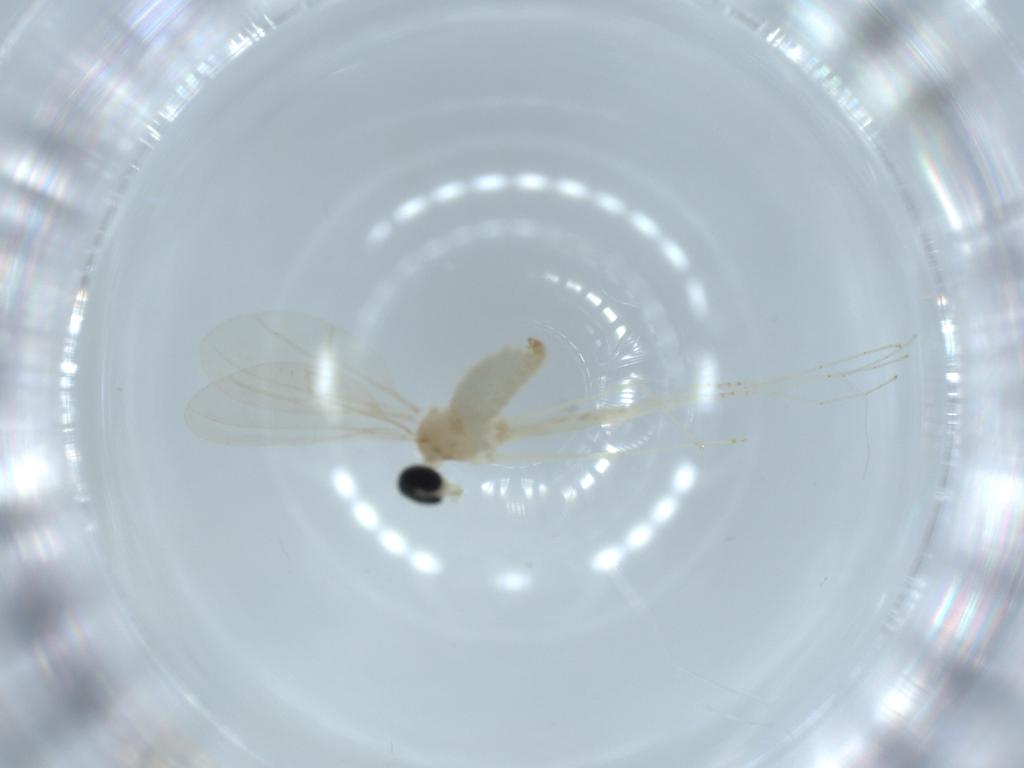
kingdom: Animalia
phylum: Arthropoda
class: Insecta
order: Diptera
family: Cecidomyiidae
